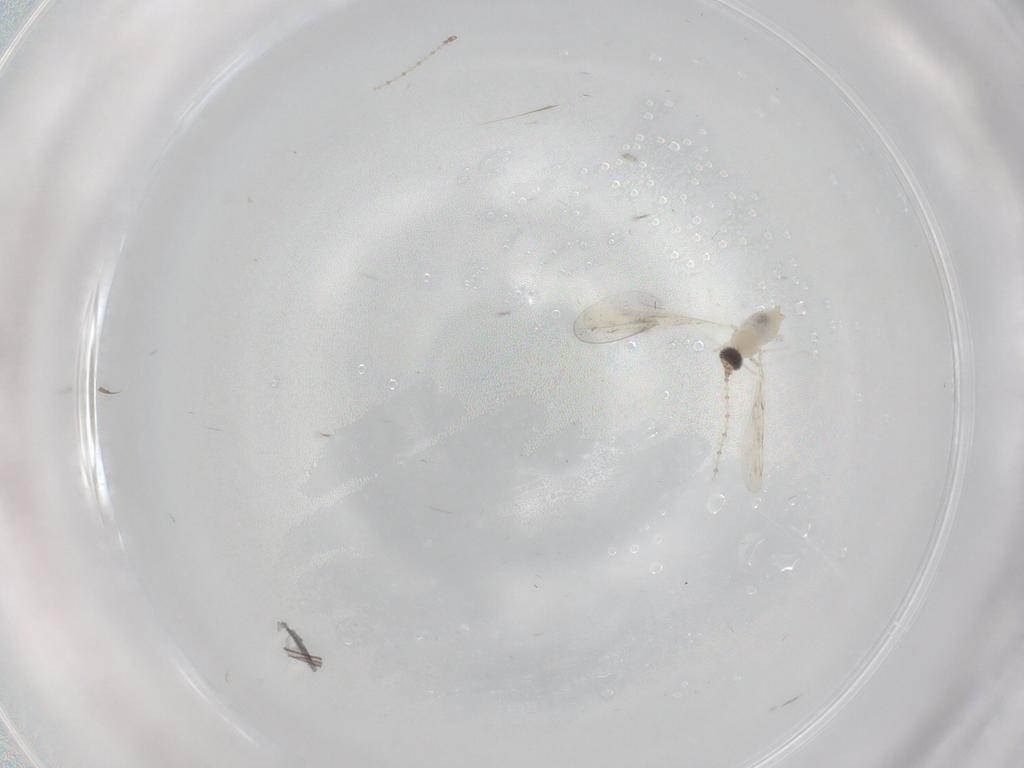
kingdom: Animalia
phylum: Arthropoda
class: Insecta
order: Diptera
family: Cecidomyiidae
